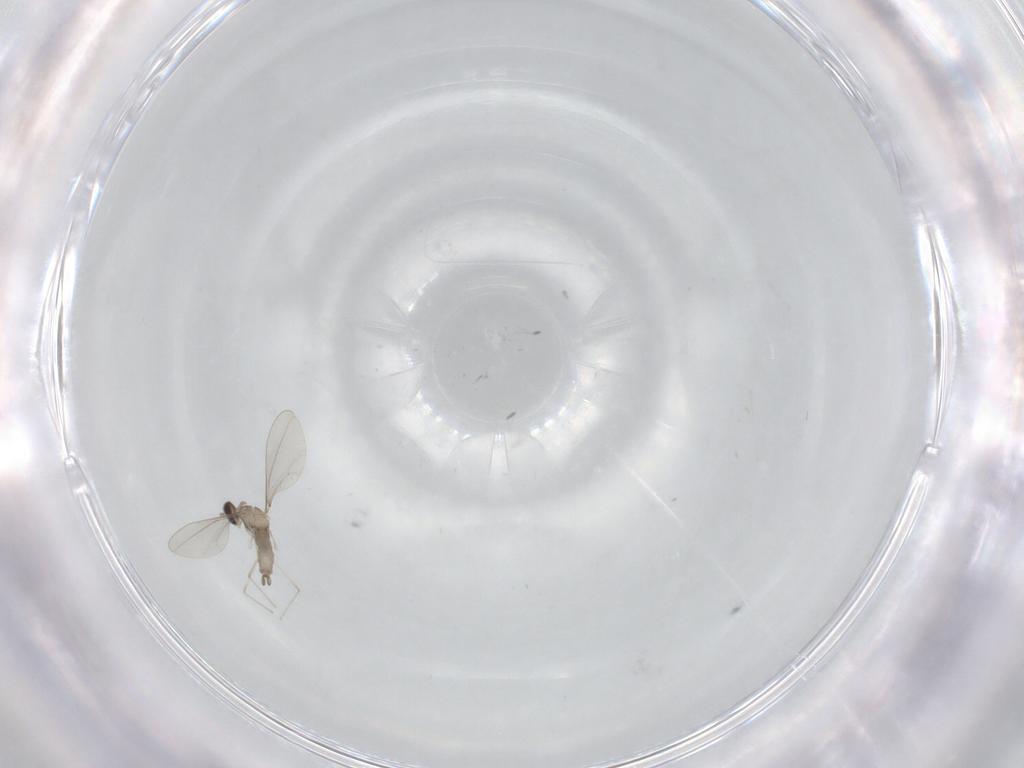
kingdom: Animalia
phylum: Arthropoda
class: Insecta
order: Diptera
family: Cecidomyiidae
